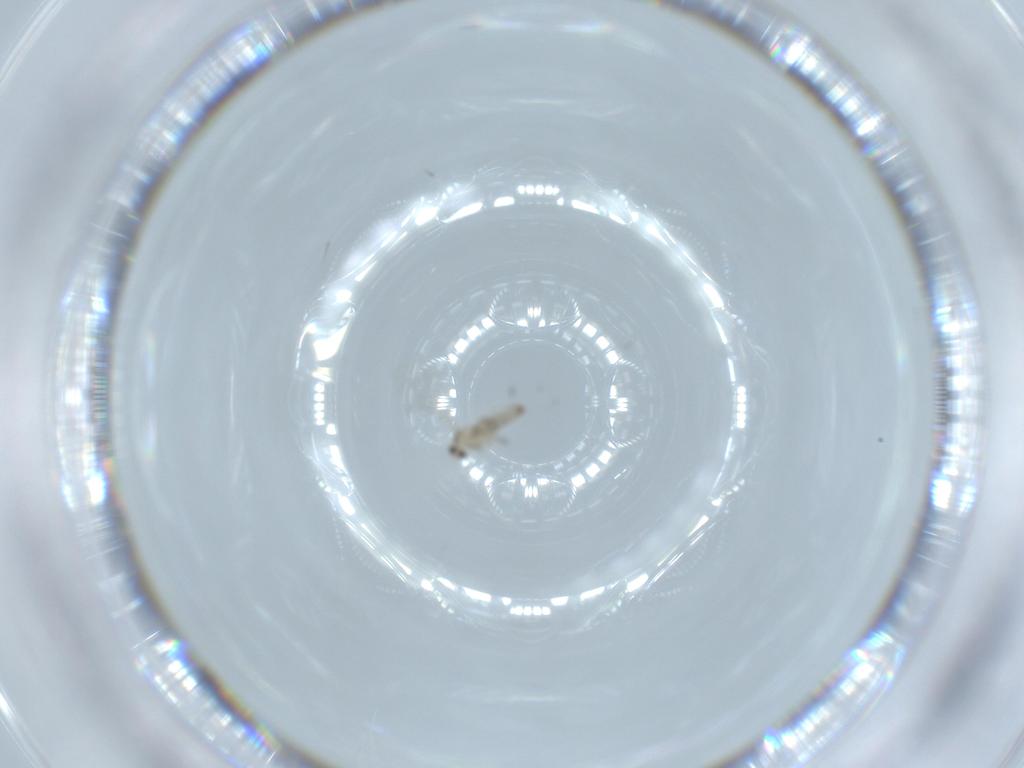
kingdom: Animalia
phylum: Arthropoda
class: Insecta
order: Diptera
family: Cecidomyiidae
